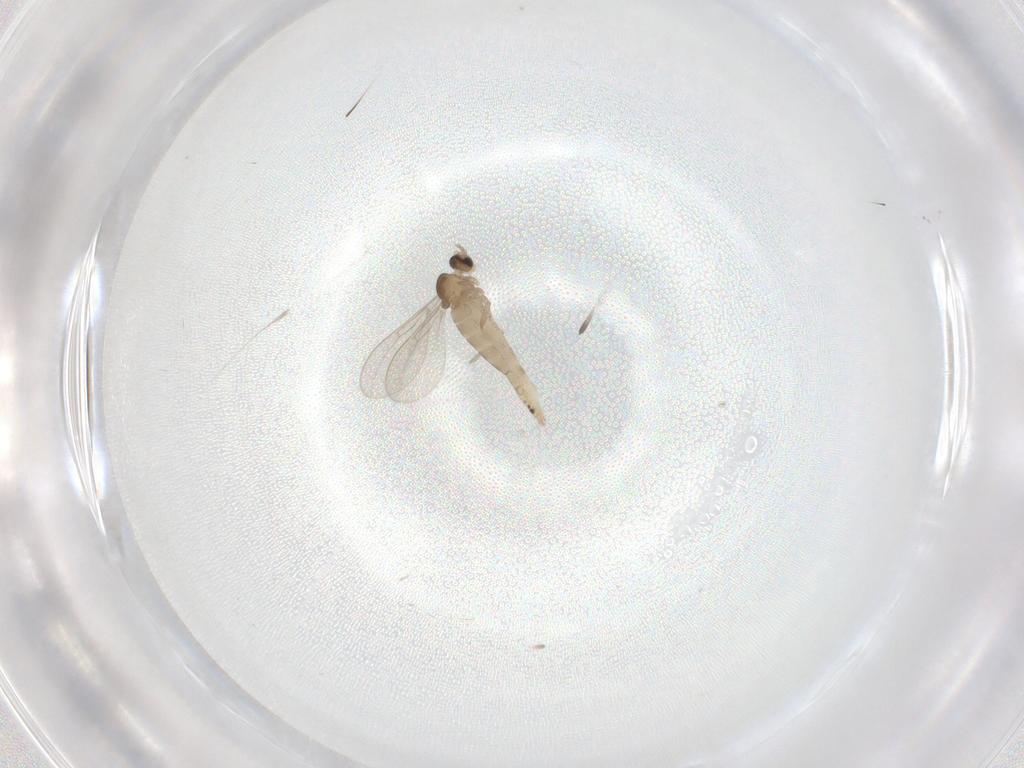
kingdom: Animalia
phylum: Arthropoda
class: Insecta
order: Diptera
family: Cecidomyiidae
